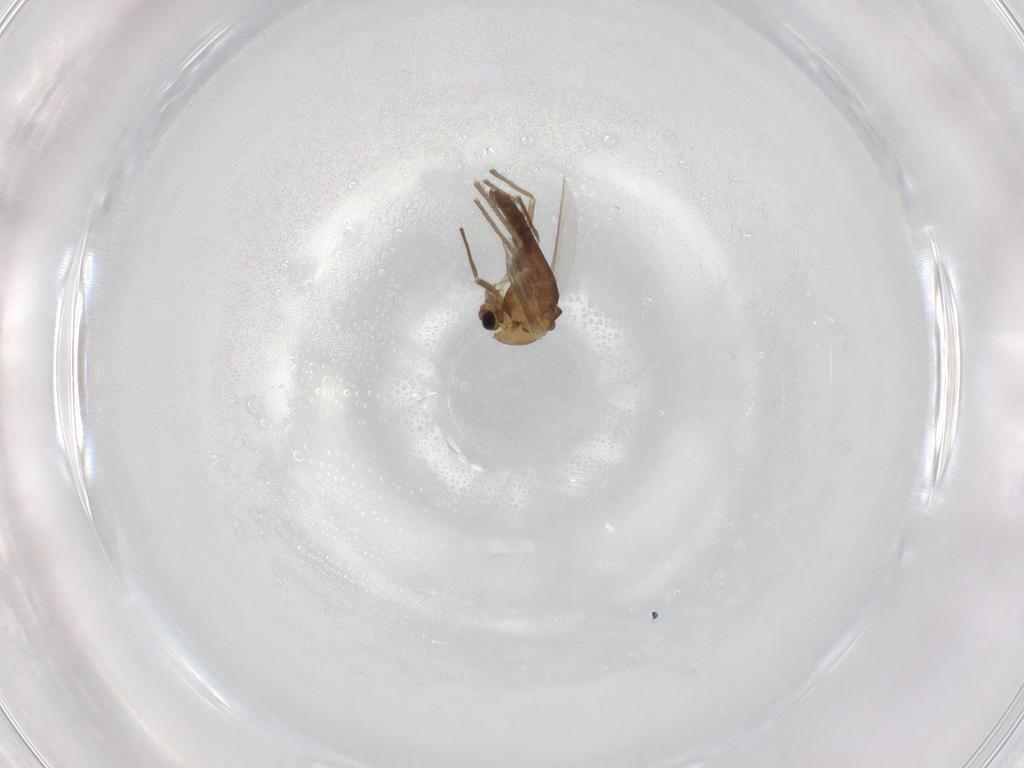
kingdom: Animalia
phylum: Arthropoda
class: Insecta
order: Diptera
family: Chironomidae
